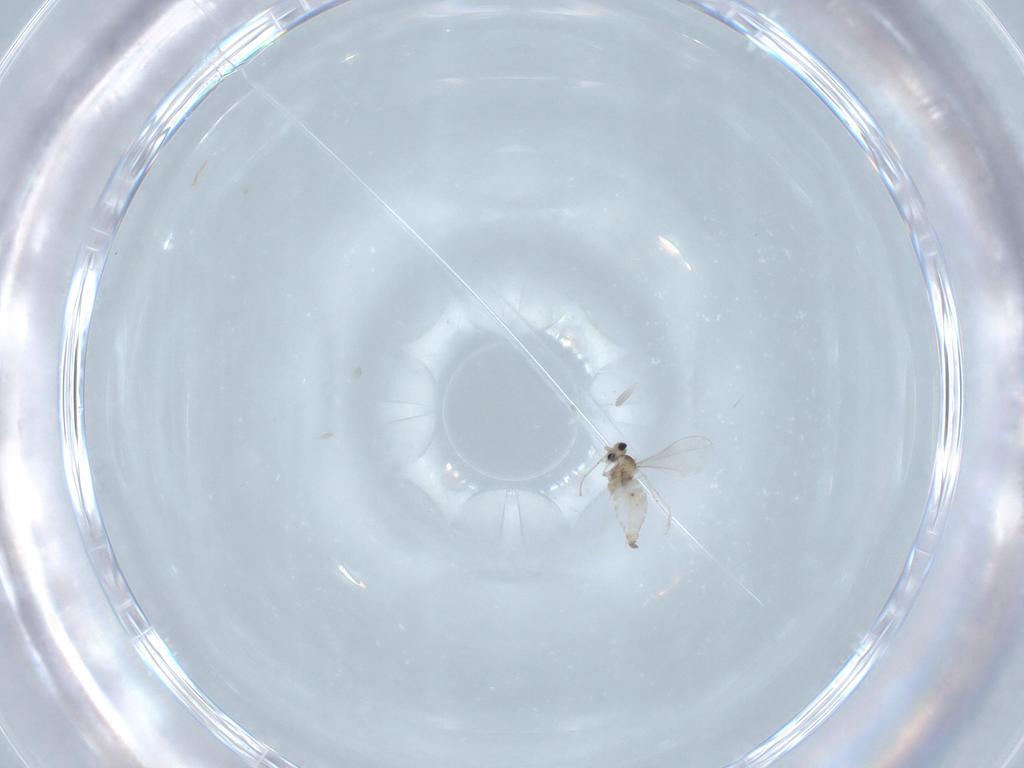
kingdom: Animalia
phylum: Arthropoda
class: Insecta
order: Diptera
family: Cecidomyiidae
